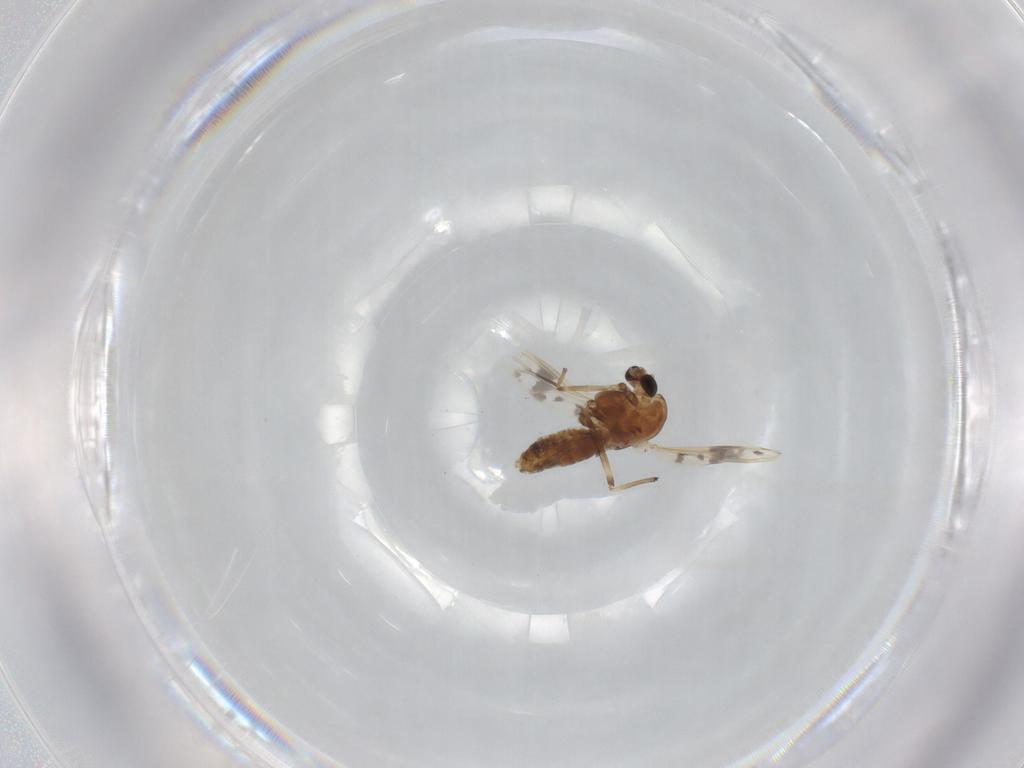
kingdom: Animalia
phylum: Arthropoda
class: Insecta
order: Diptera
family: Chironomidae
